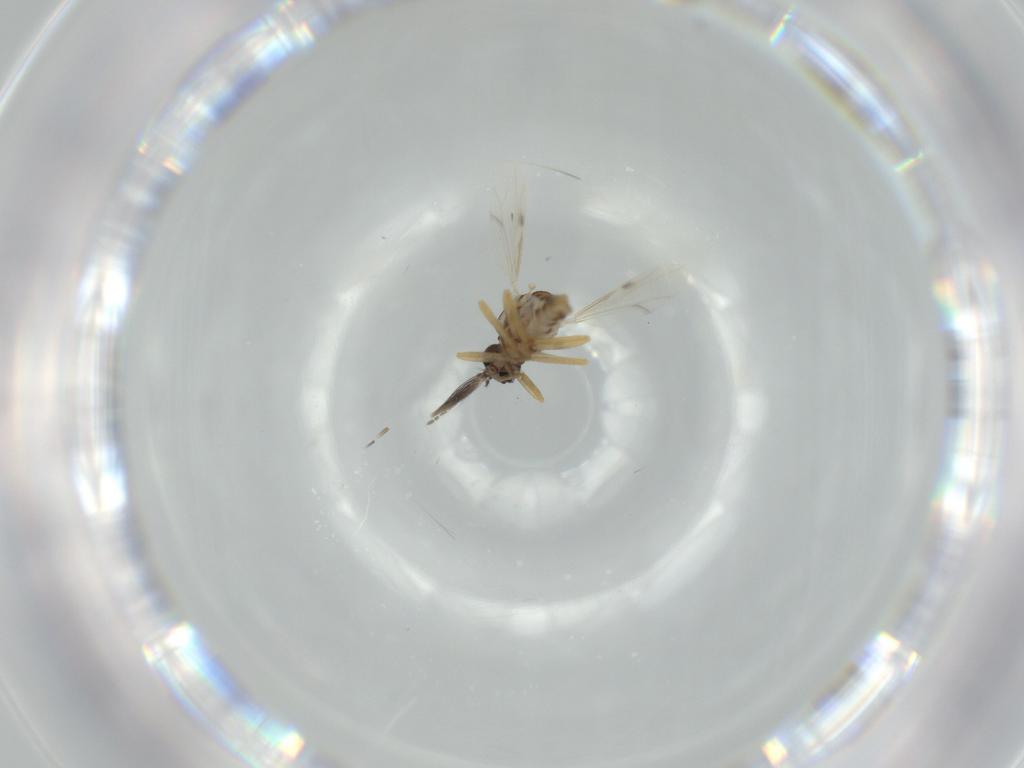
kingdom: Animalia
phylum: Arthropoda
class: Insecta
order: Diptera
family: Ceratopogonidae
